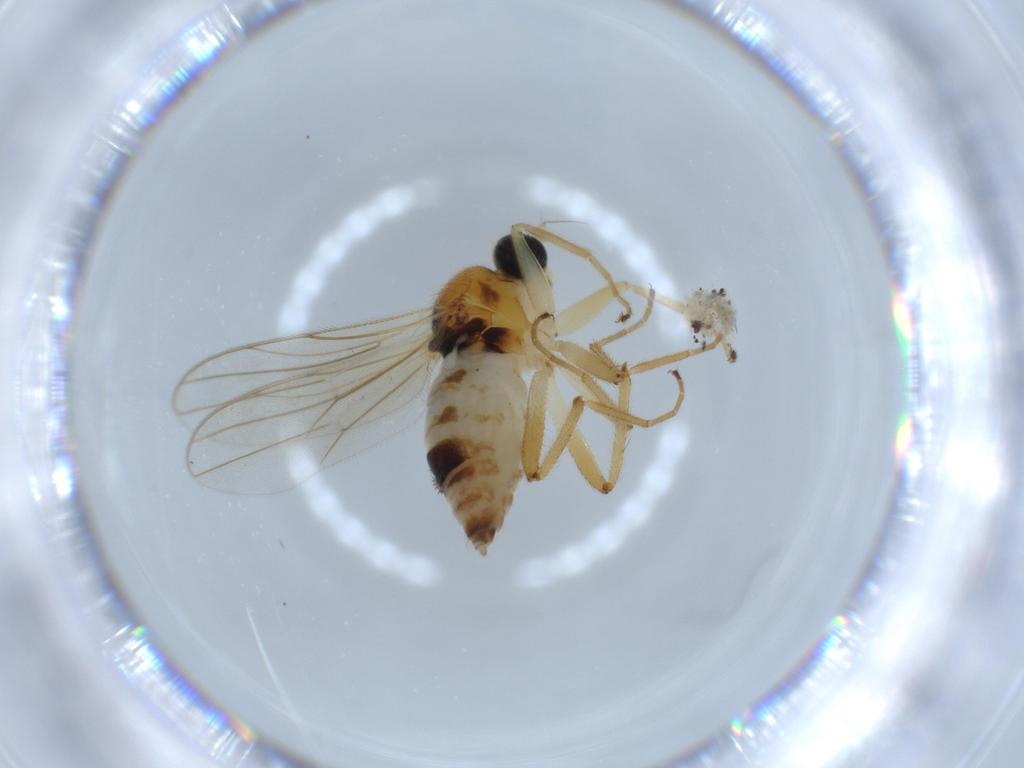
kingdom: Animalia
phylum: Arthropoda
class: Insecta
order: Diptera
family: Hybotidae
